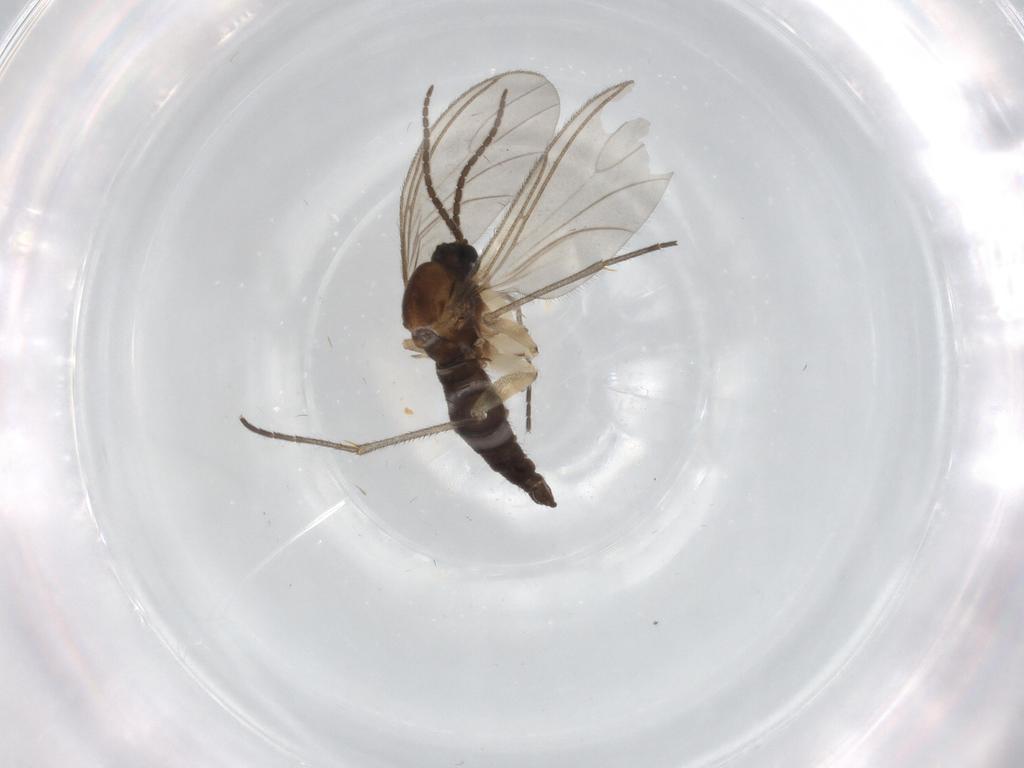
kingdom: Animalia
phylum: Arthropoda
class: Insecta
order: Diptera
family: Sciaridae
